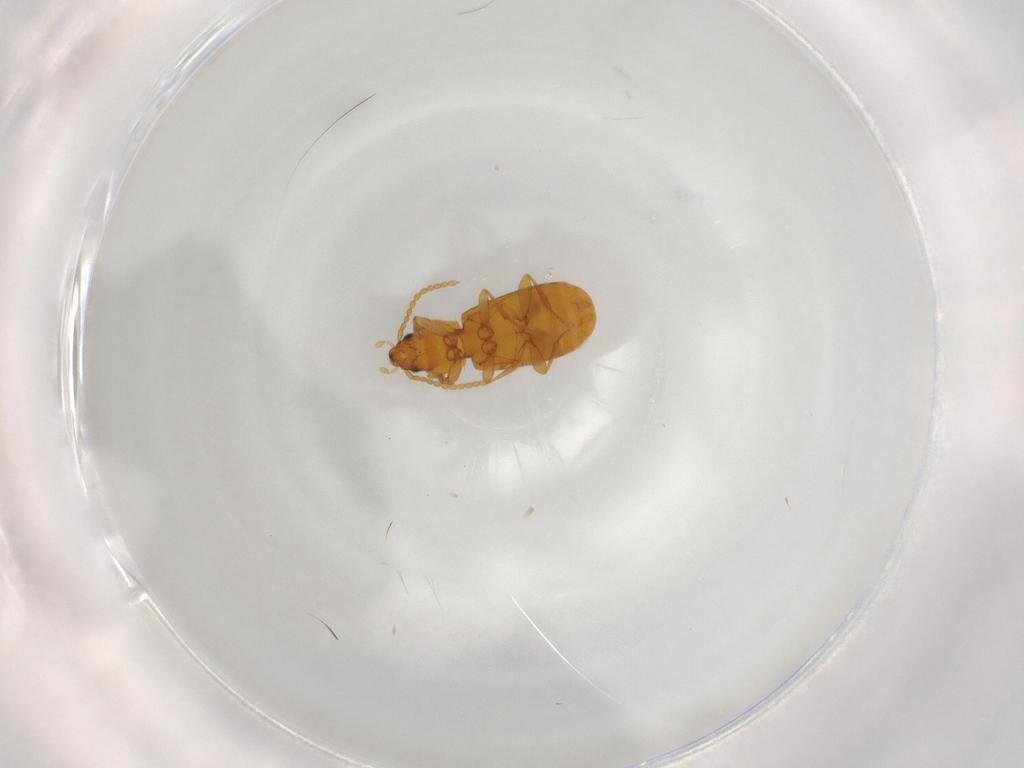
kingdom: Animalia
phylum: Arthropoda
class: Insecta
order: Coleoptera
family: Carabidae
